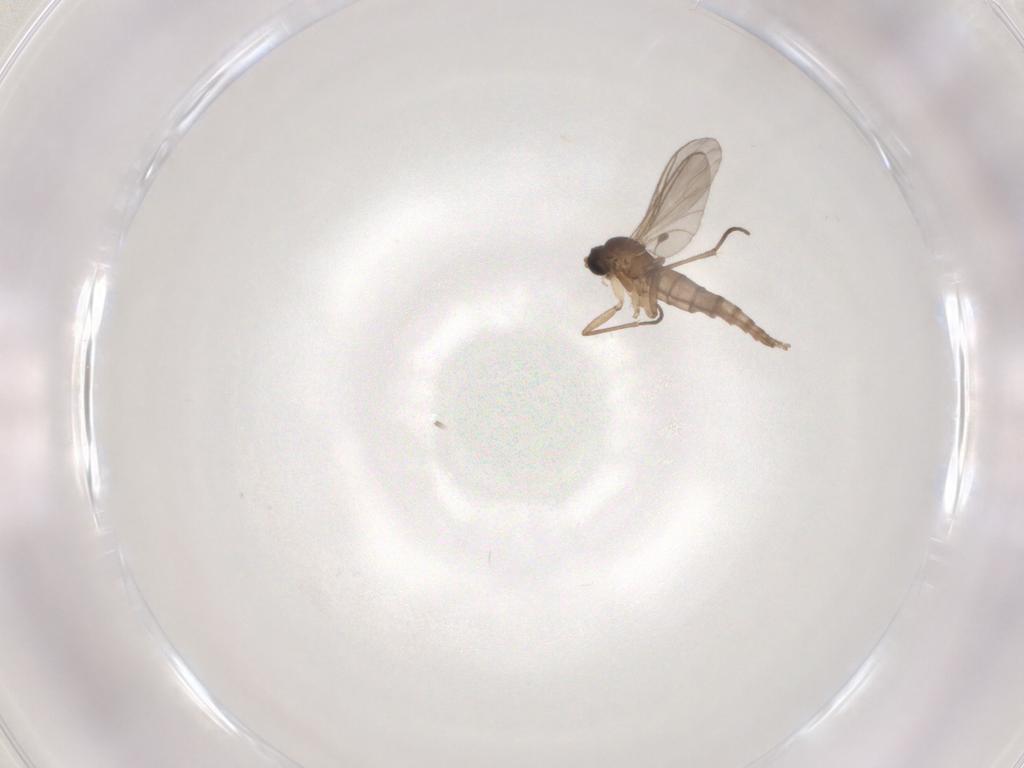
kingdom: Animalia
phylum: Arthropoda
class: Insecta
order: Diptera
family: Sciaridae
